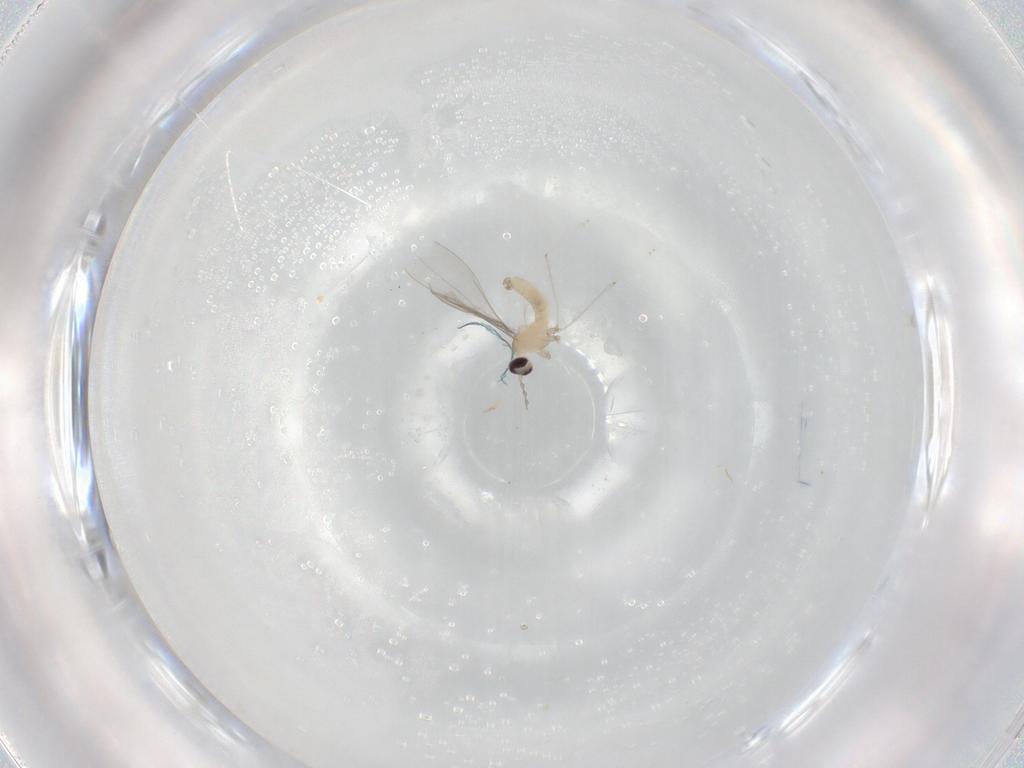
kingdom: Animalia
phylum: Arthropoda
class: Insecta
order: Diptera
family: Cecidomyiidae
